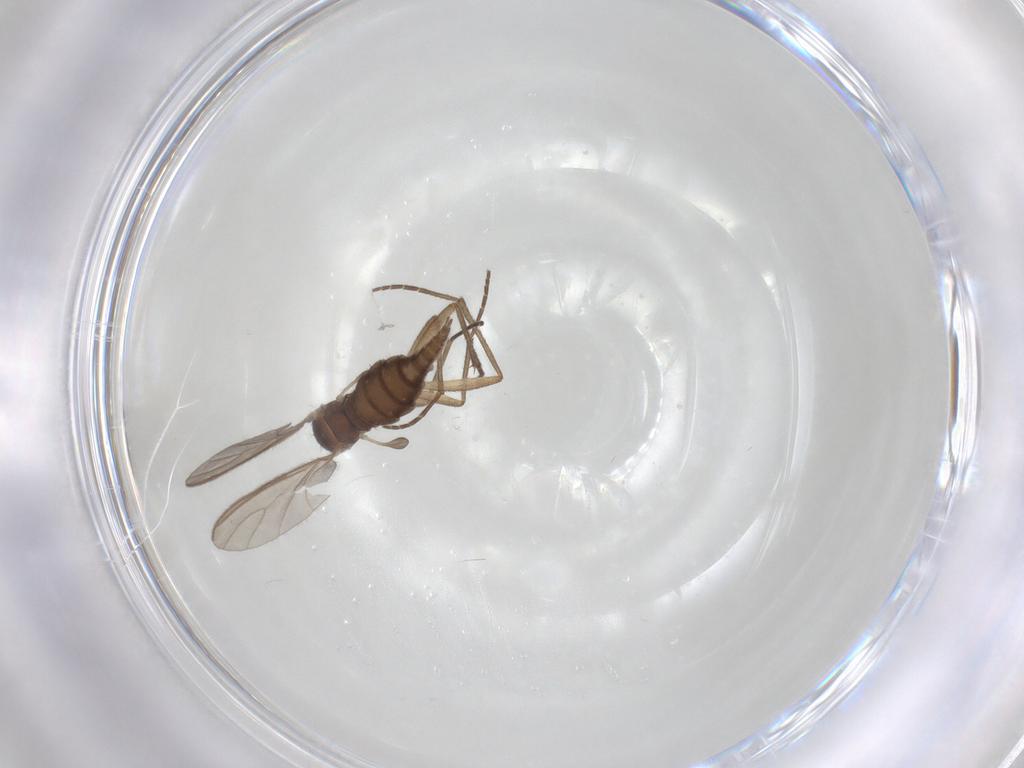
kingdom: Animalia
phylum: Arthropoda
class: Insecta
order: Diptera
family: Sciaridae
